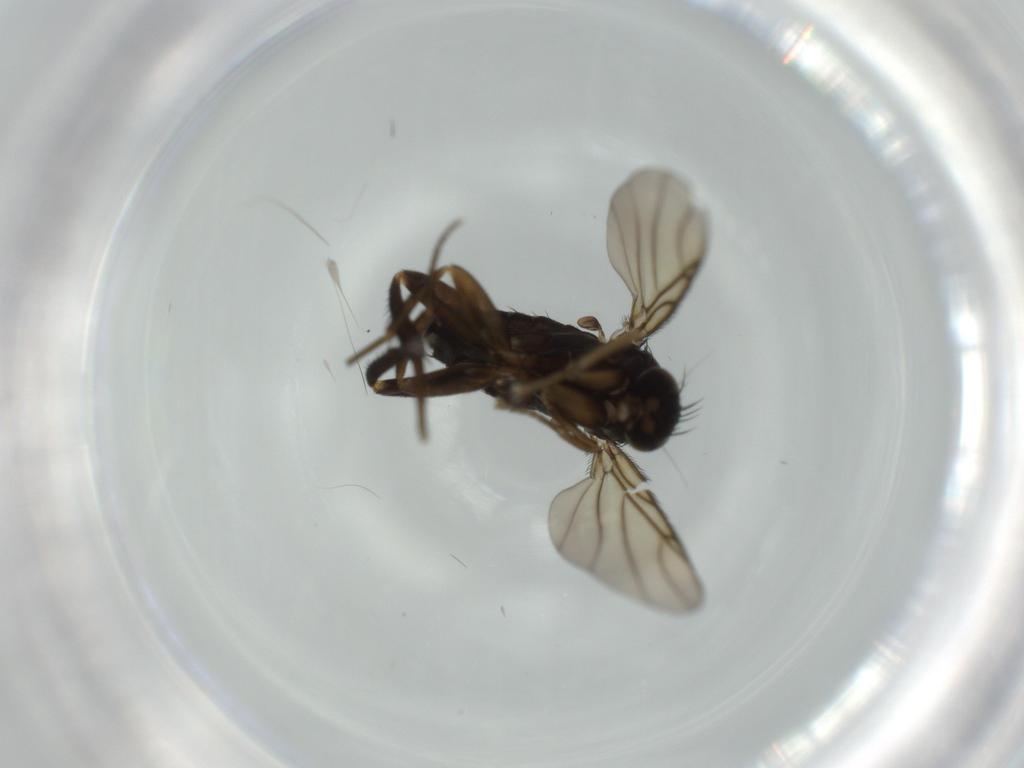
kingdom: Animalia
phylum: Arthropoda
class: Insecta
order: Diptera
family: Phoridae
